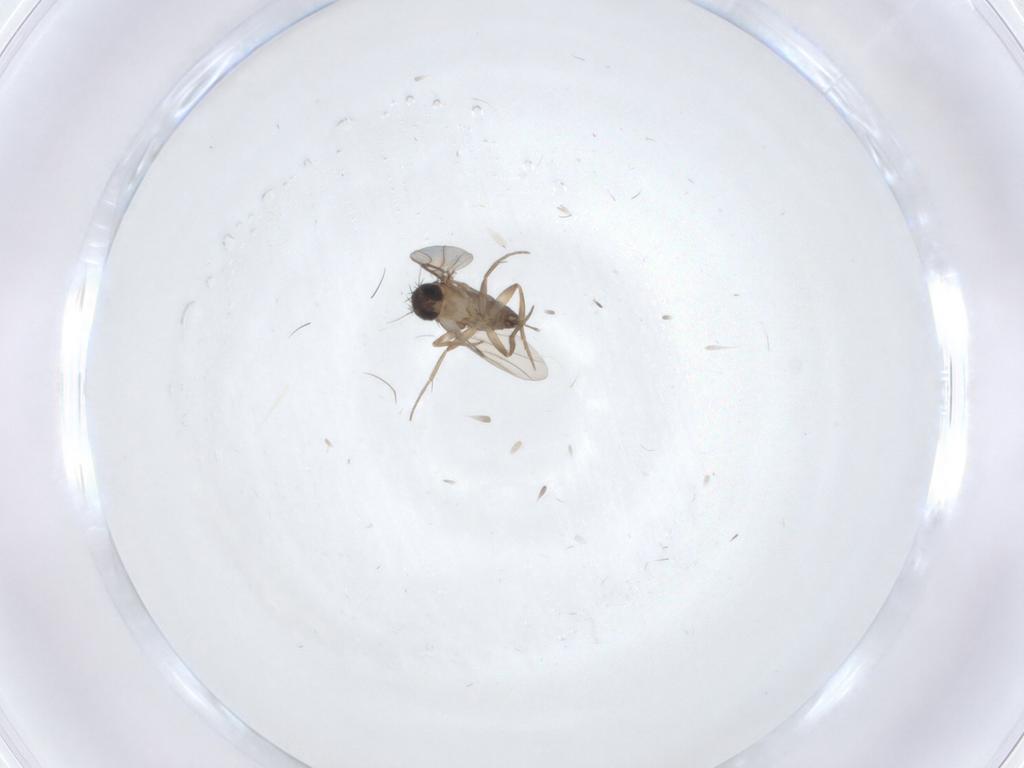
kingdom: Animalia
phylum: Arthropoda
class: Insecta
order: Diptera
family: Phoridae
